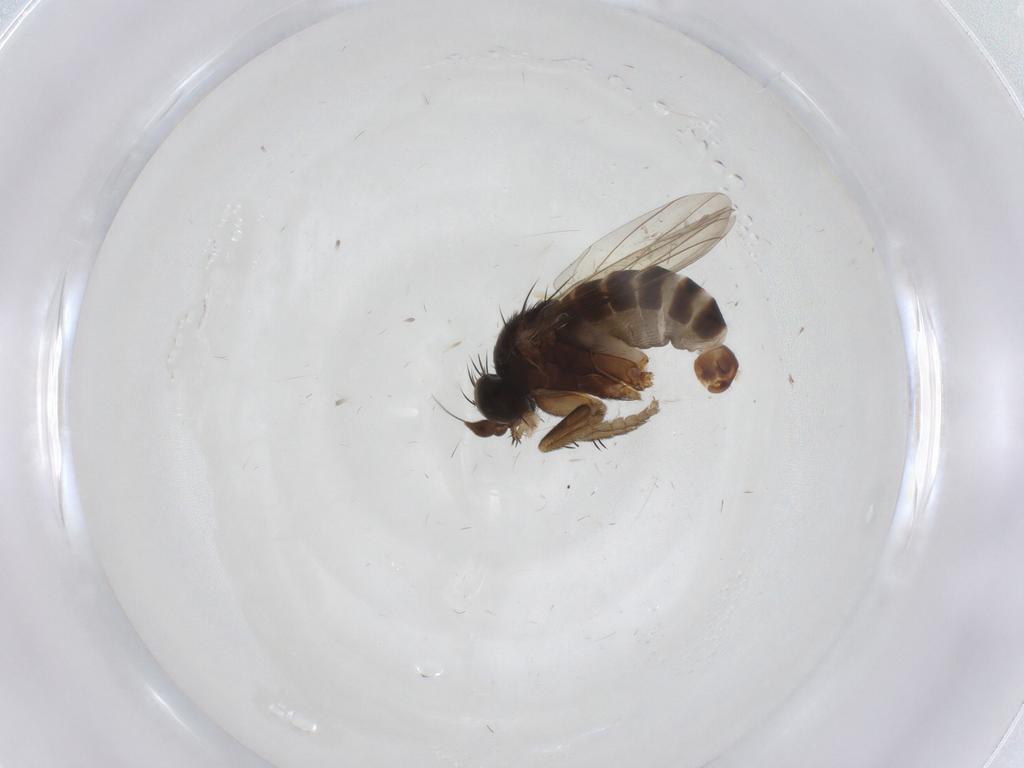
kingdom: Animalia
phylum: Arthropoda
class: Insecta
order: Diptera
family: Phoridae
